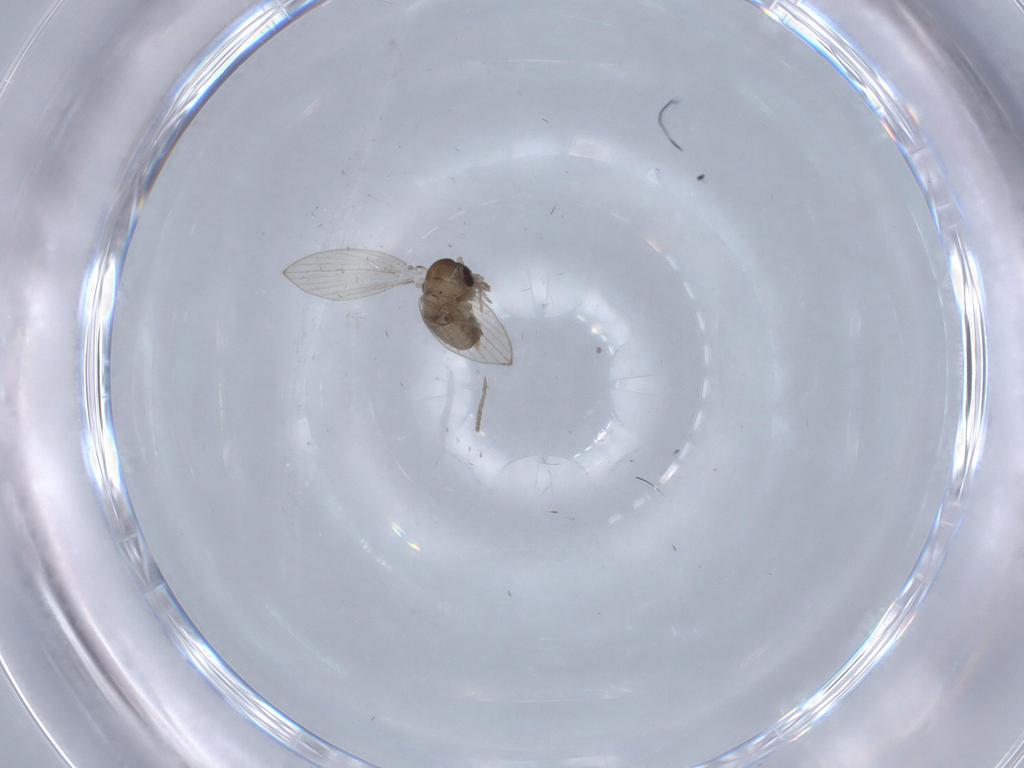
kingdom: Animalia
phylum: Arthropoda
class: Insecta
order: Diptera
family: Psychodidae
